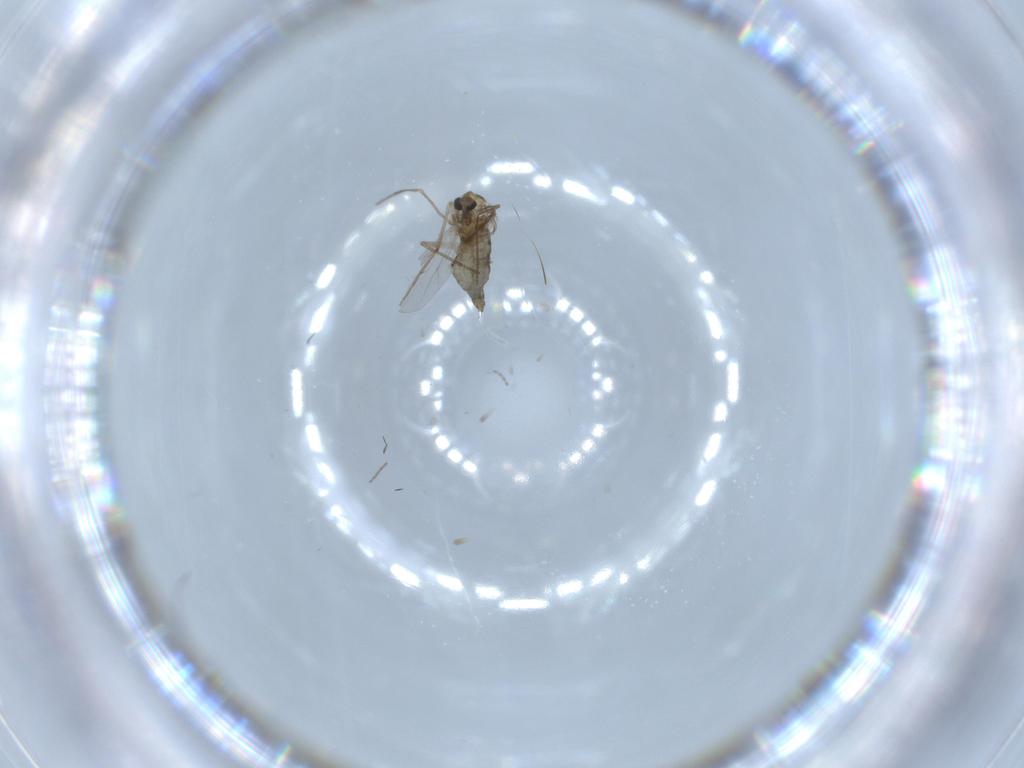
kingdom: Animalia
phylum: Arthropoda
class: Insecta
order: Diptera
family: Chironomidae
